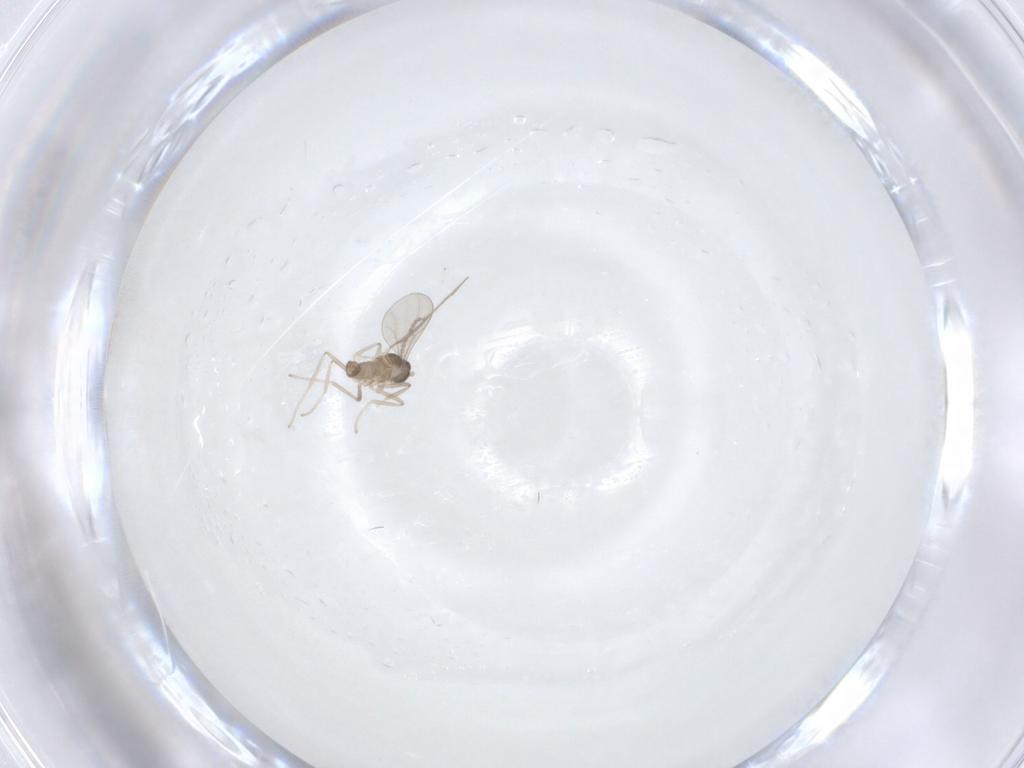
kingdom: Animalia
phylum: Arthropoda
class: Insecta
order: Diptera
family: Cecidomyiidae
